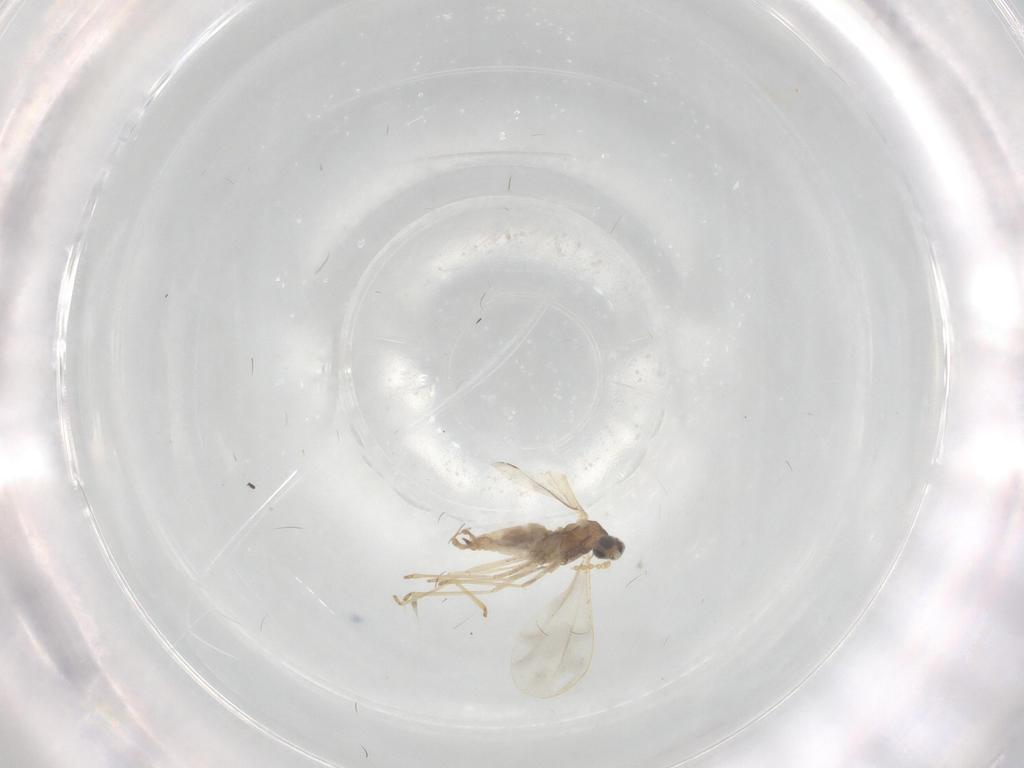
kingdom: Animalia
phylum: Arthropoda
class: Insecta
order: Diptera
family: Cecidomyiidae
